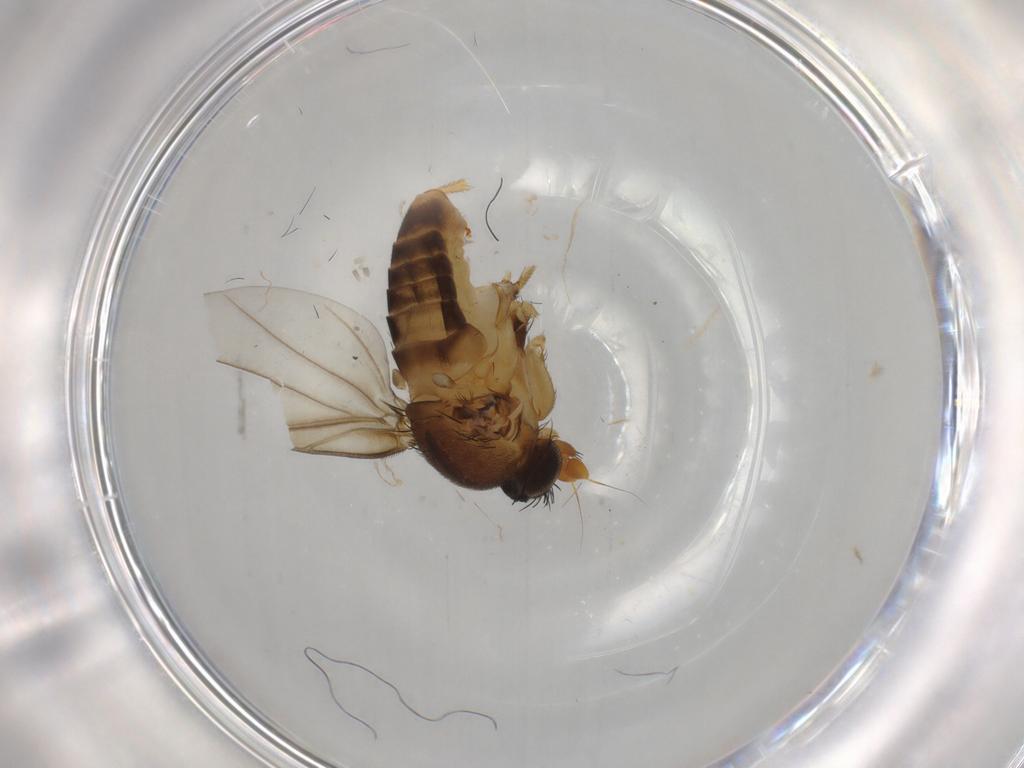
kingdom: Animalia
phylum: Arthropoda
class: Insecta
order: Diptera
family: Phoridae
